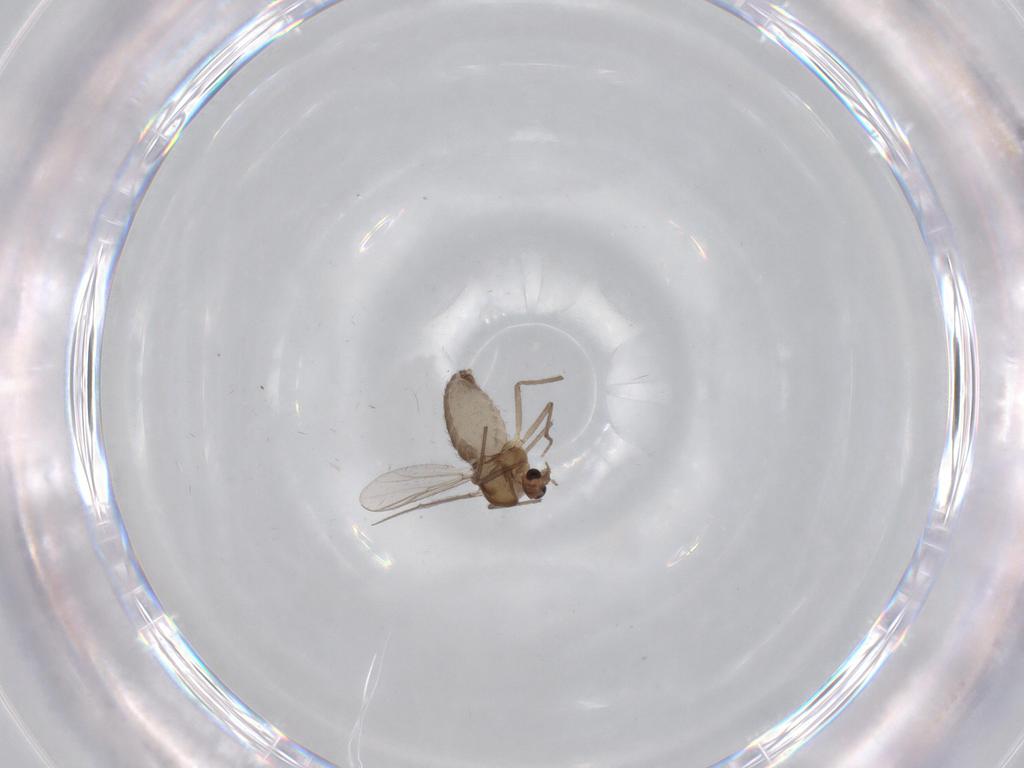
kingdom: Animalia
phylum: Arthropoda
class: Insecta
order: Diptera
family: Chironomidae
